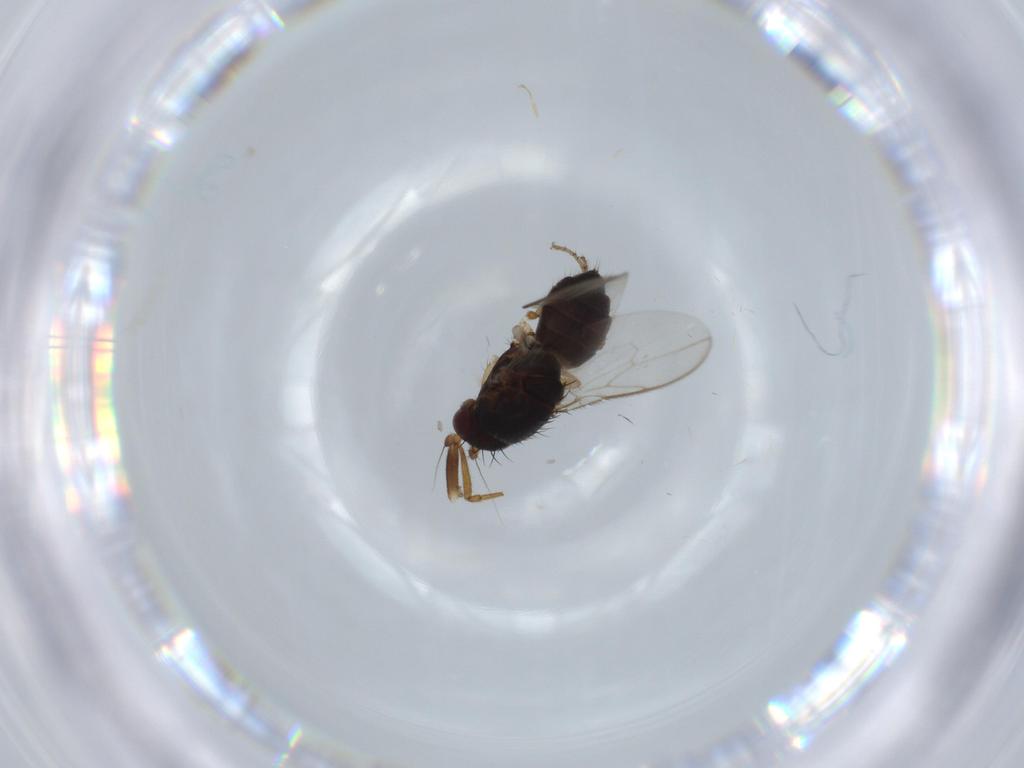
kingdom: Animalia
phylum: Arthropoda
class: Insecta
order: Diptera
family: Sphaeroceridae
